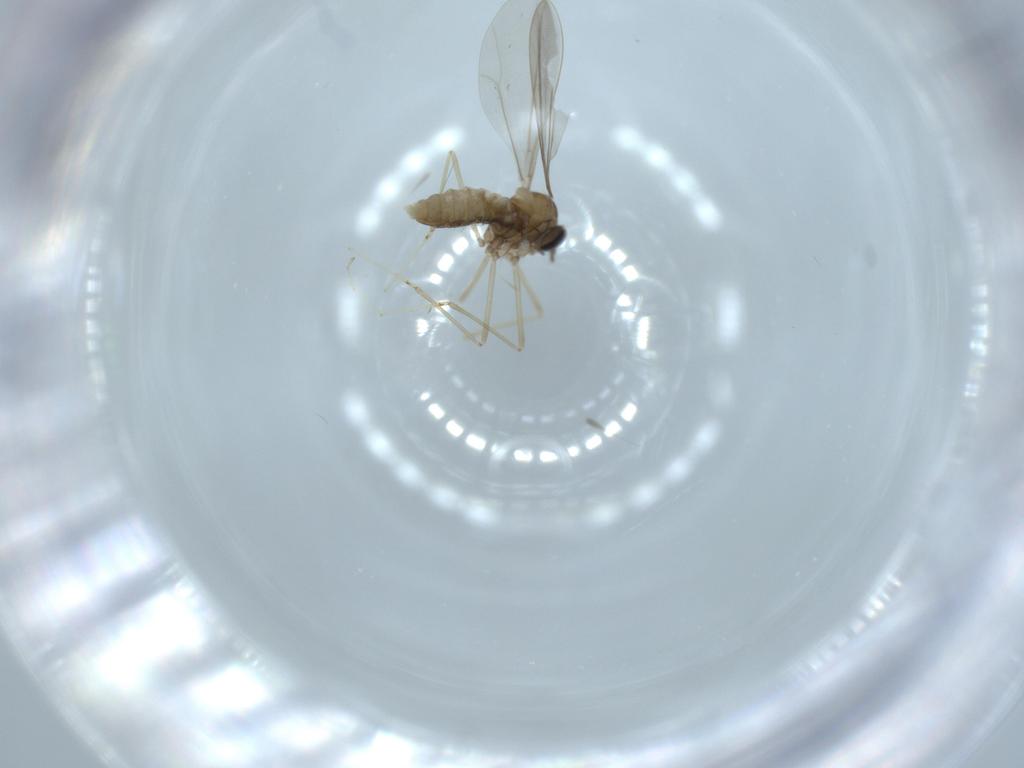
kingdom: Animalia
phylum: Arthropoda
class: Insecta
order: Diptera
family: Cecidomyiidae
